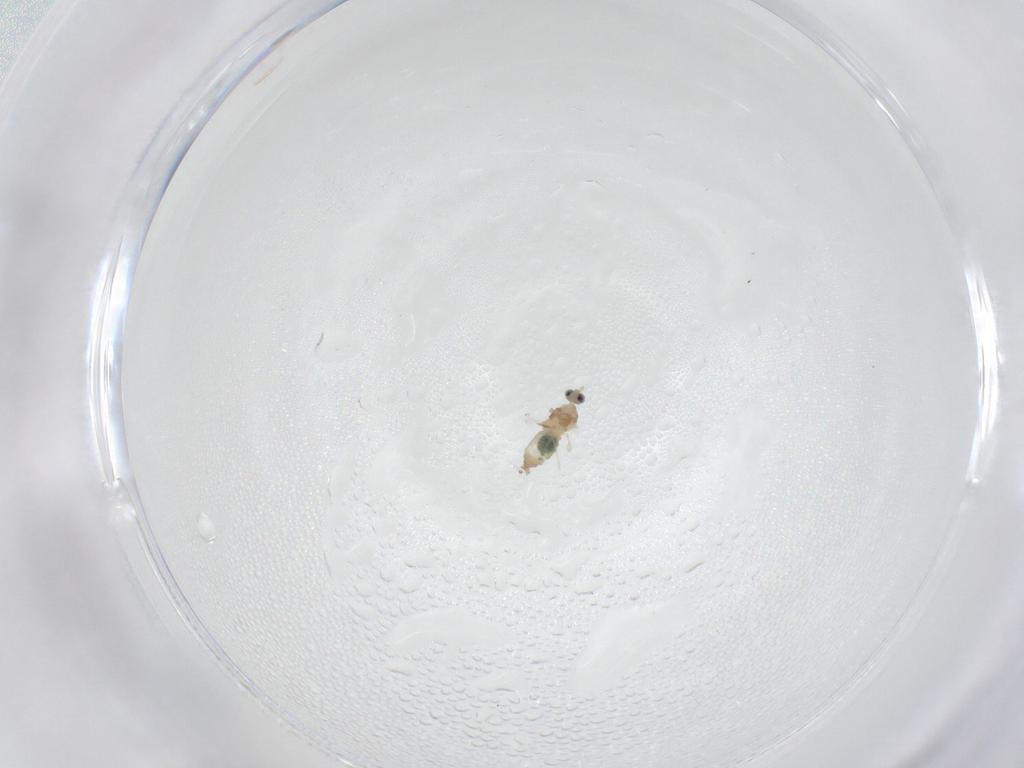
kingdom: Animalia
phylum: Arthropoda
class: Insecta
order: Diptera
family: Cecidomyiidae
